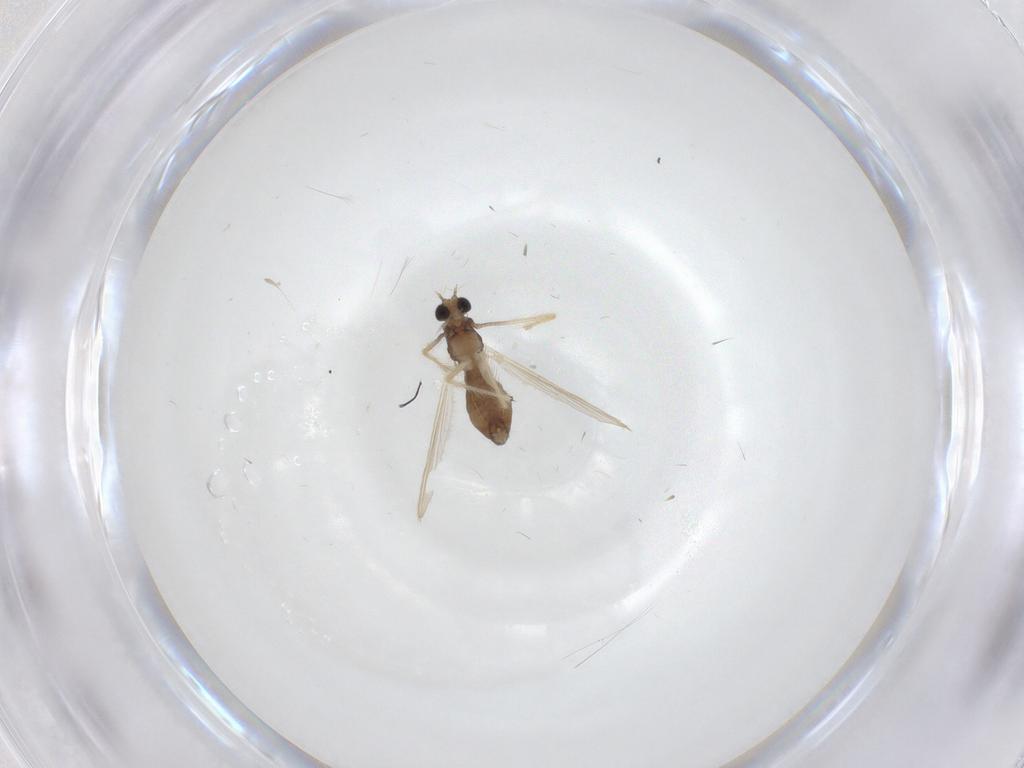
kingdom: Animalia
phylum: Arthropoda
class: Insecta
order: Diptera
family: Chironomidae
